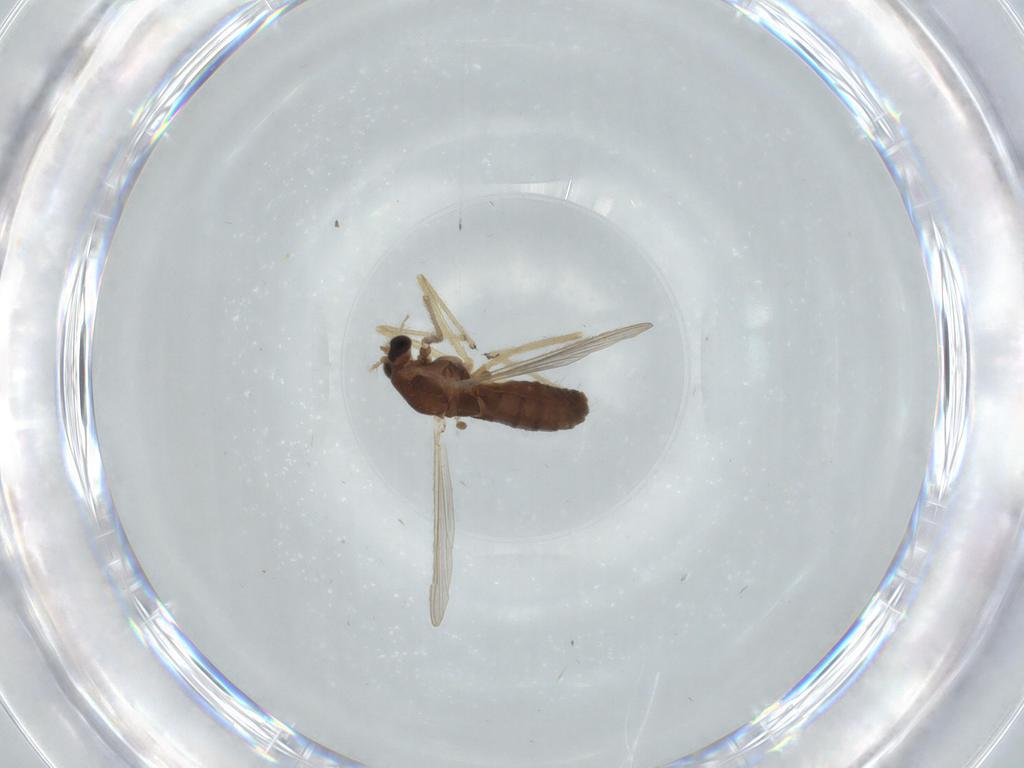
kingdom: Animalia
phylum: Arthropoda
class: Insecta
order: Diptera
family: Chironomidae
